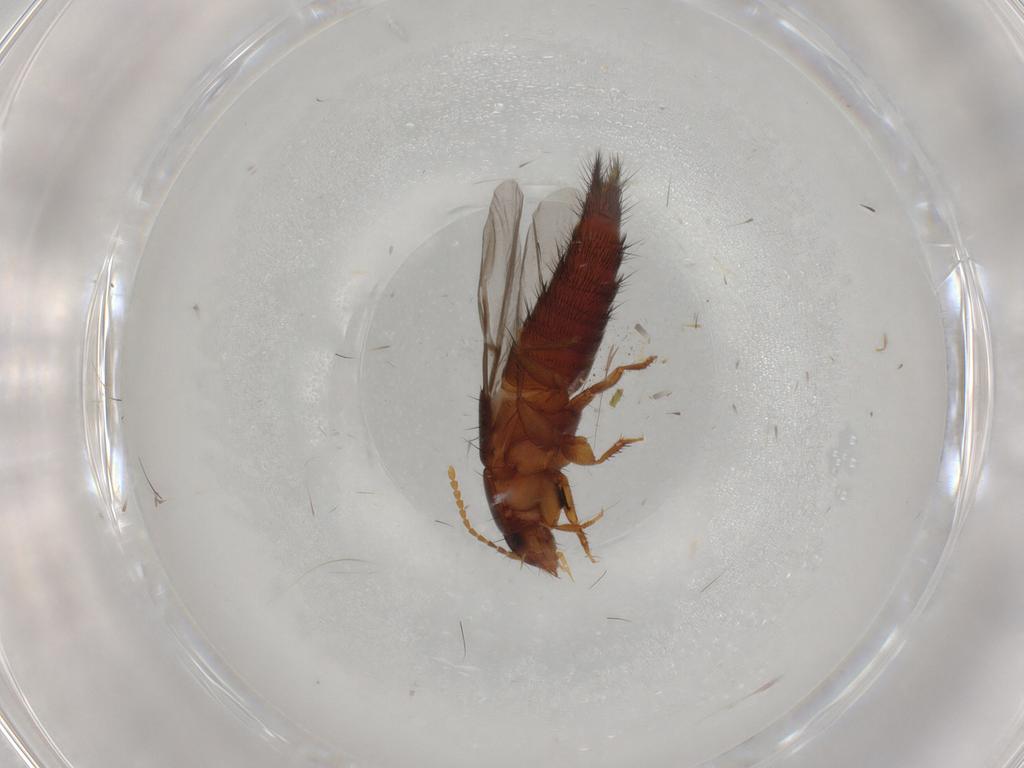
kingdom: Animalia
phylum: Arthropoda
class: Insecta
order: Coleoptera
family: Staphylinidae
